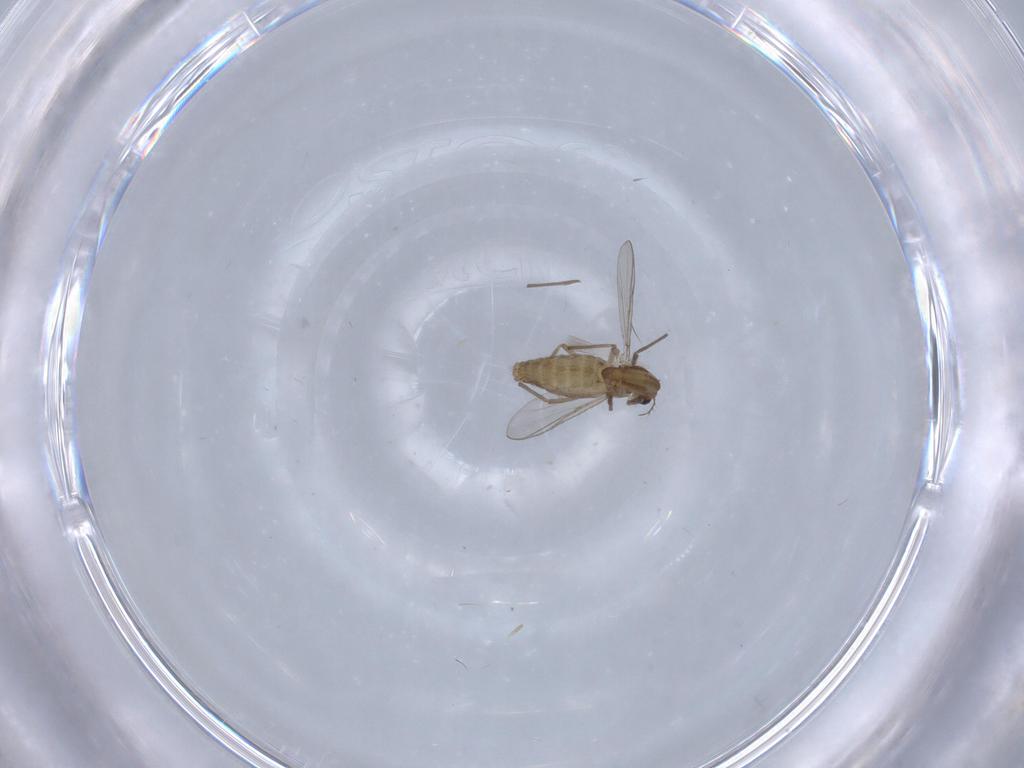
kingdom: Animalia
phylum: Arthropoda
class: Insecta
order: Diptera
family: Chironomidae
